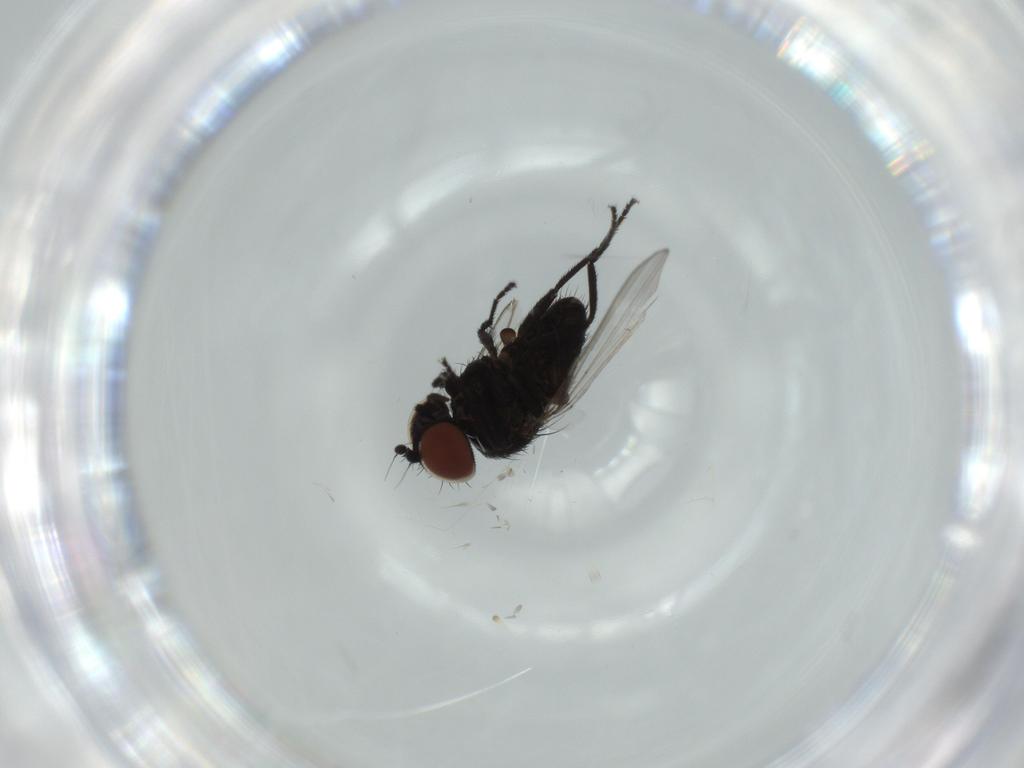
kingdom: Animalia
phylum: Arthropoda
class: Insecta
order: Diptera
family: Milichiidae
